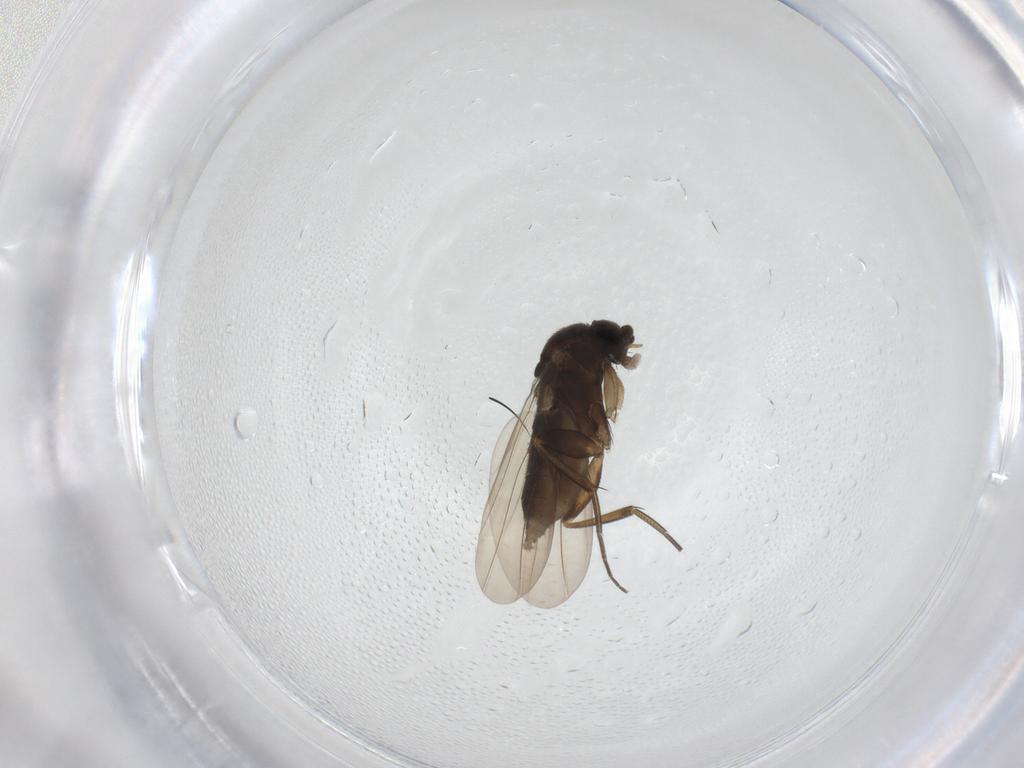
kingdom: Animalia
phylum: Arthropoda
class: Insecta
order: Diptera
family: Phoridae
